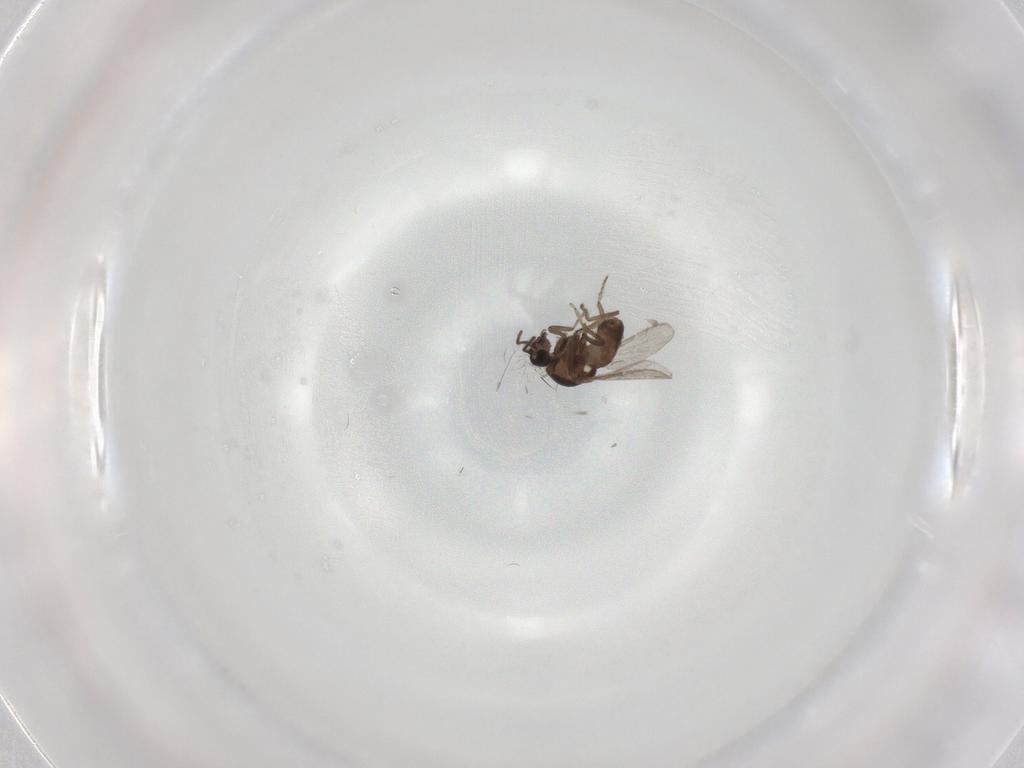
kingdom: Animalia
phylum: Arthropoda
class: Insecta
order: Diptera
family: Ceratopogonidae
